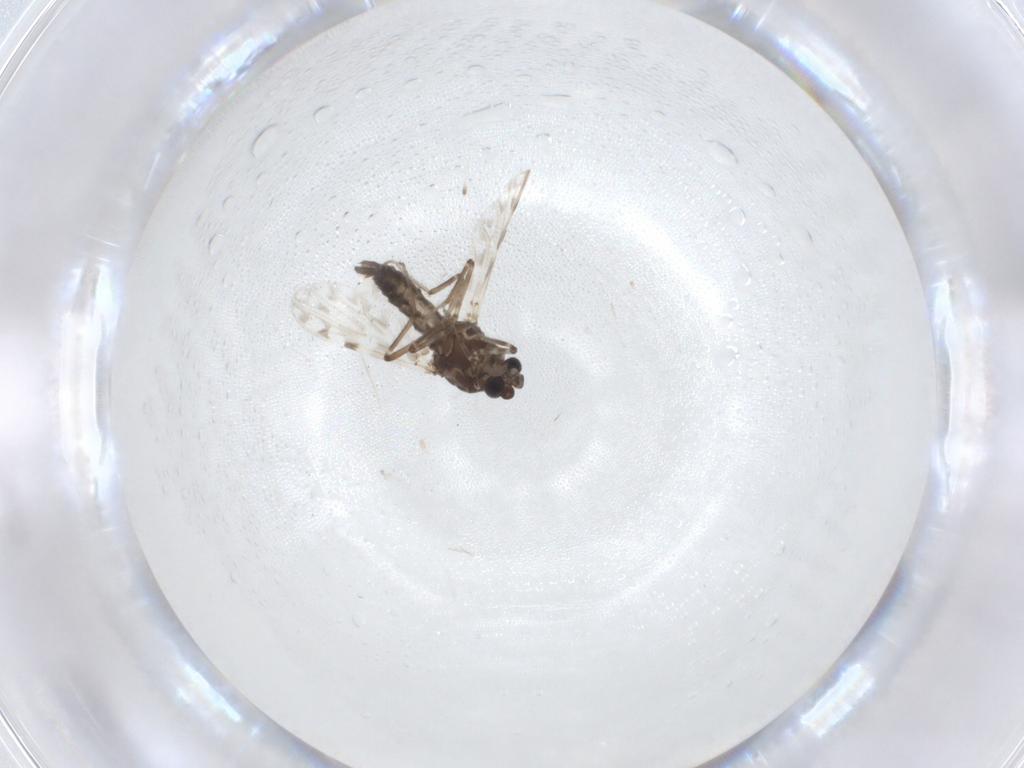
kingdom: Animalia
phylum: Arthropoda
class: Insecta
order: Diptera
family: Ceratopogonidae
